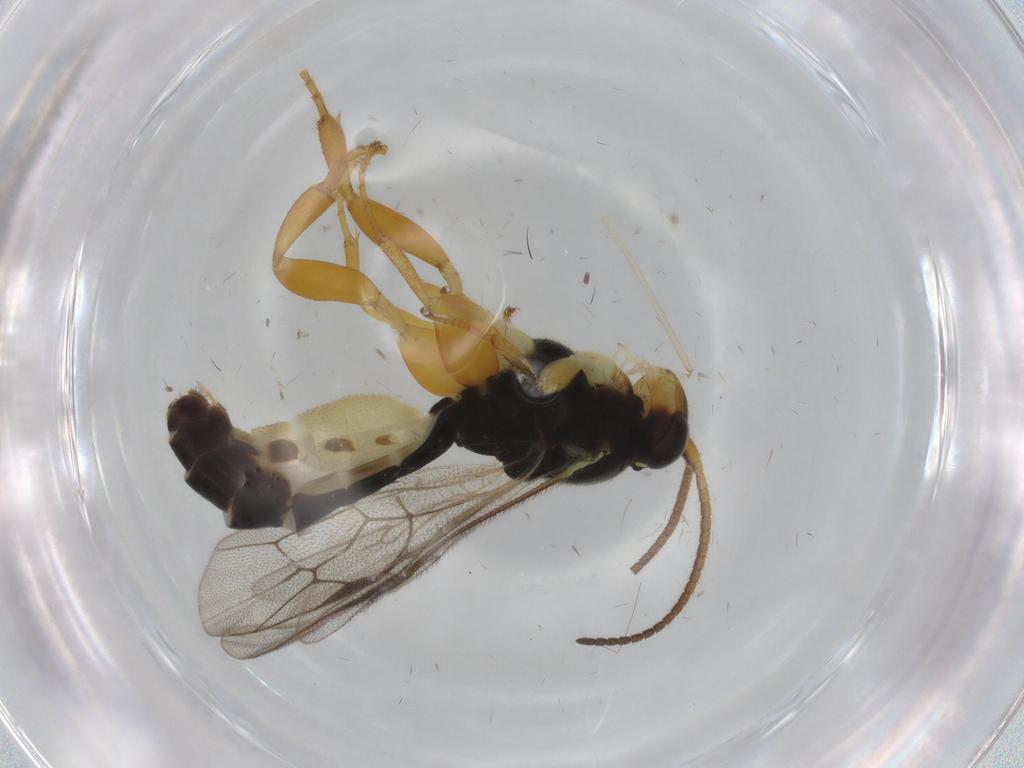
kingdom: Animalia
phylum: Arthropoda
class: Insecta
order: Hymenoptera
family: Ichneumonidae
